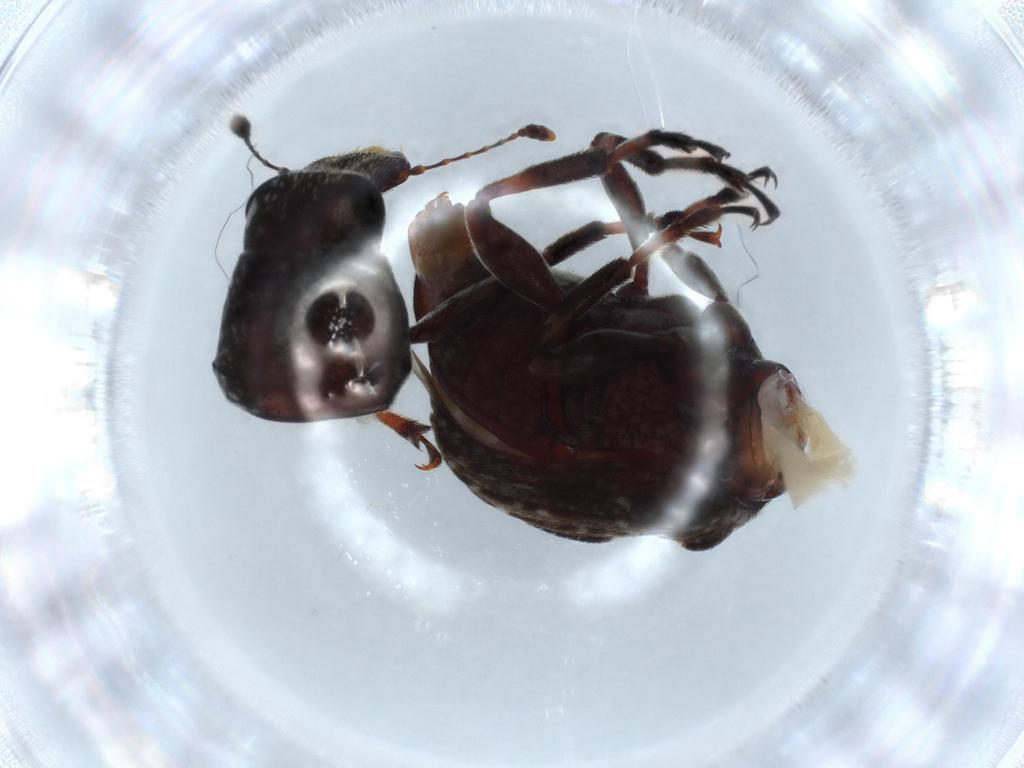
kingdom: Animalia
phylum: Arthropoda
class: Insecta
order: Coleoptera
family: Anthribidae
